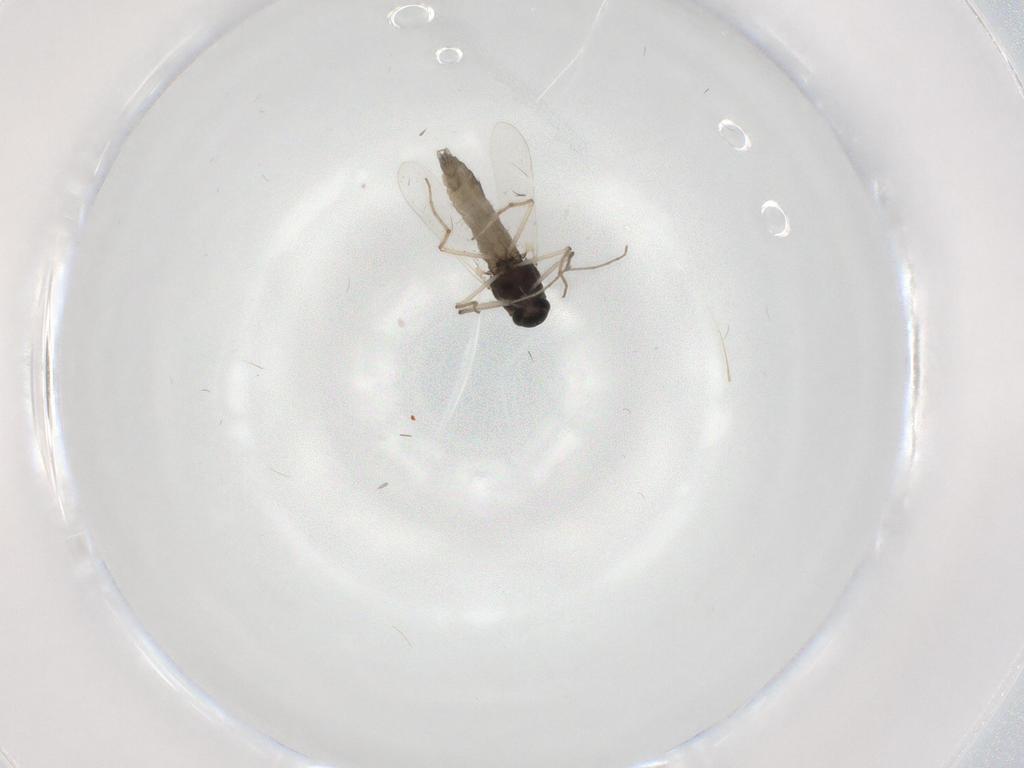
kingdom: Animalia
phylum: Arthropoda
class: Insecta
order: Diptera
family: Chironomidae
